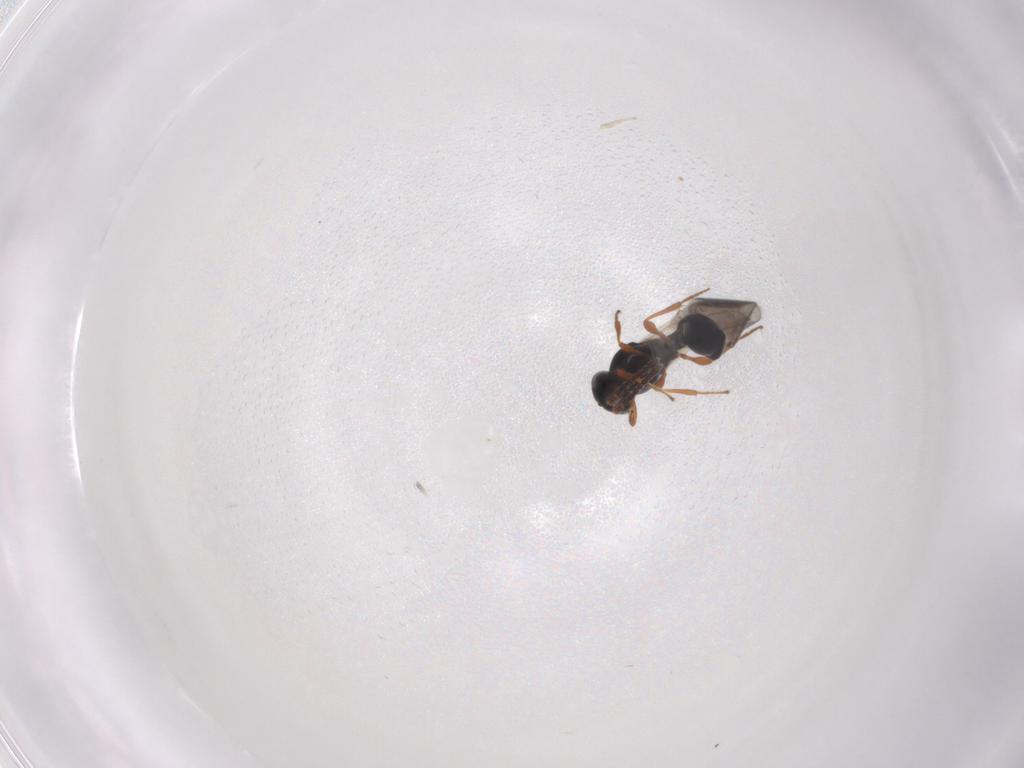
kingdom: Animalia
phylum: Arthropoda
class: Insecta
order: Hymenoptera
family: Platygastridae
